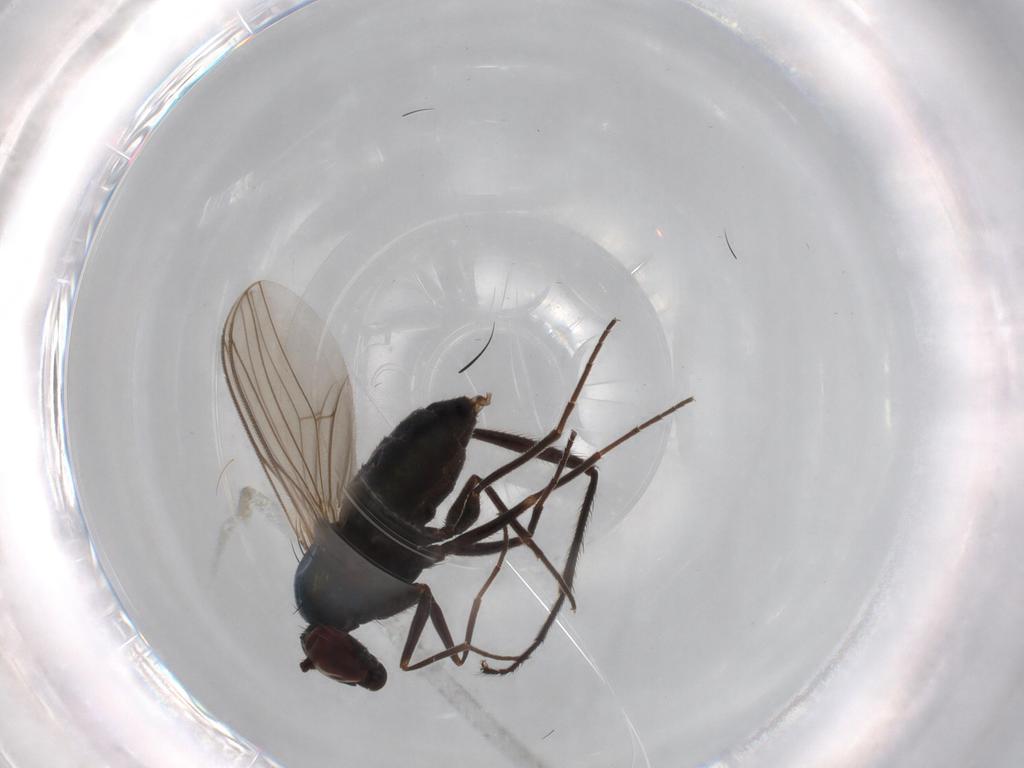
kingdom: Animalia
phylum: Arthropoda
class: Insecta
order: Diptera
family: Dolichopodidae
